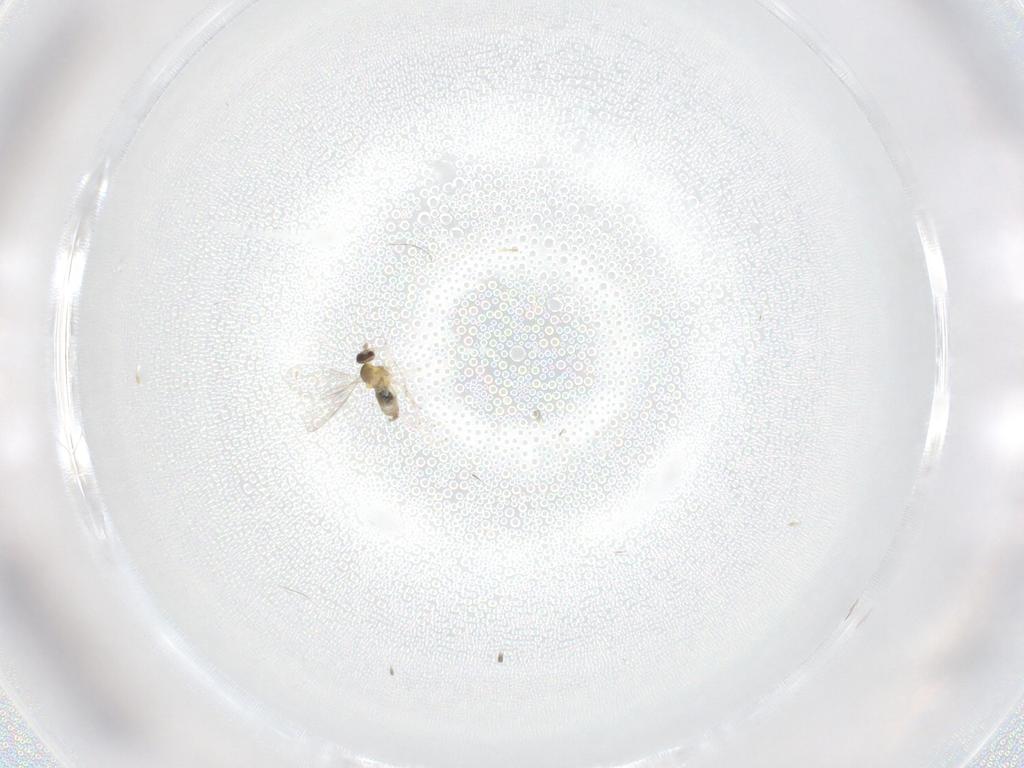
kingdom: Animalia
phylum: Arthropoda
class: Insecta
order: Diptera
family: Cecidomyiidae
